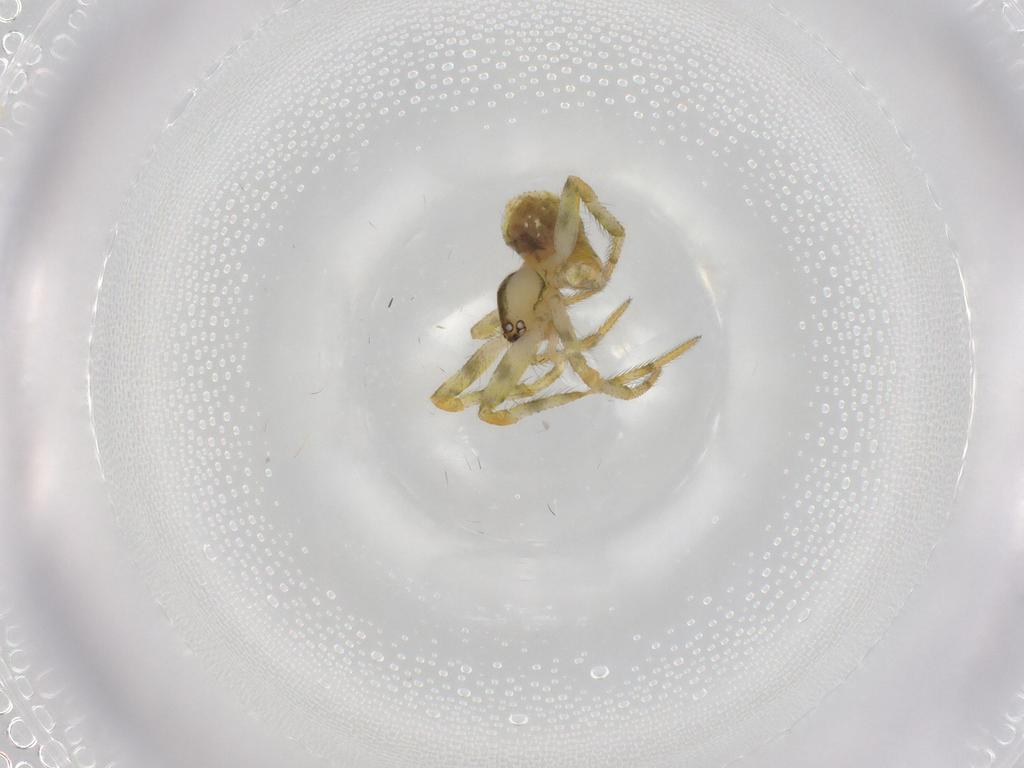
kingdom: Animalia
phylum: Arthropoda
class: Arachnida
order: Araneae
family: Theridiidae
